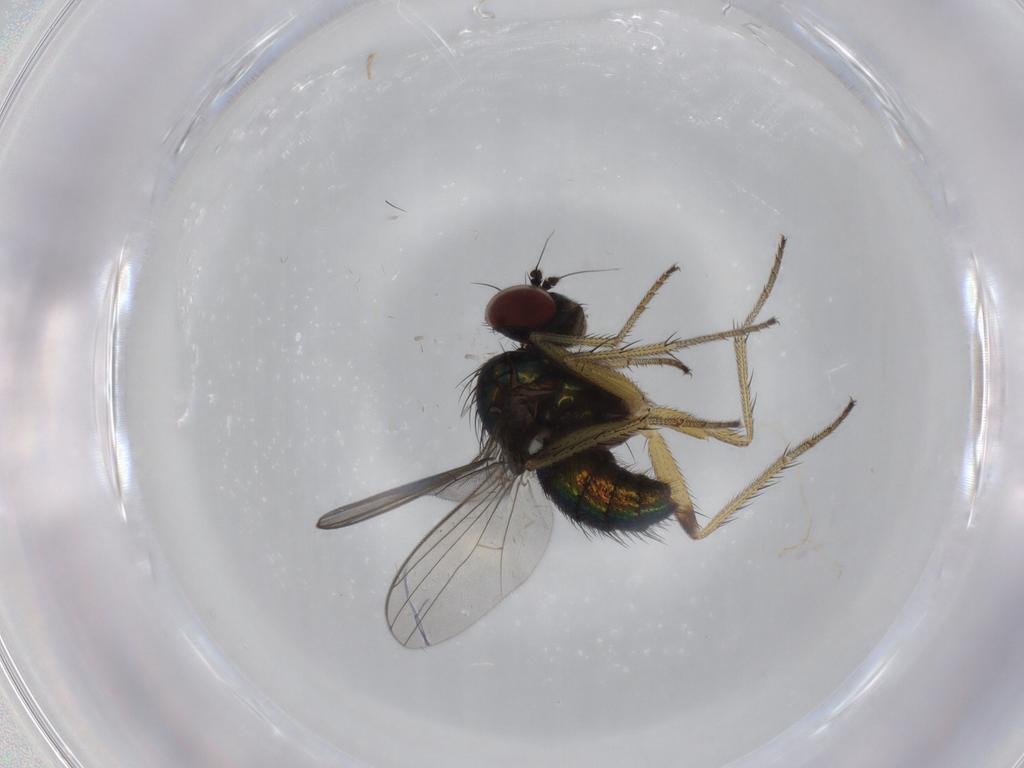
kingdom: Animalia
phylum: Arthropoda
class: Insecta
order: Diptera
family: Dolichopodidae
